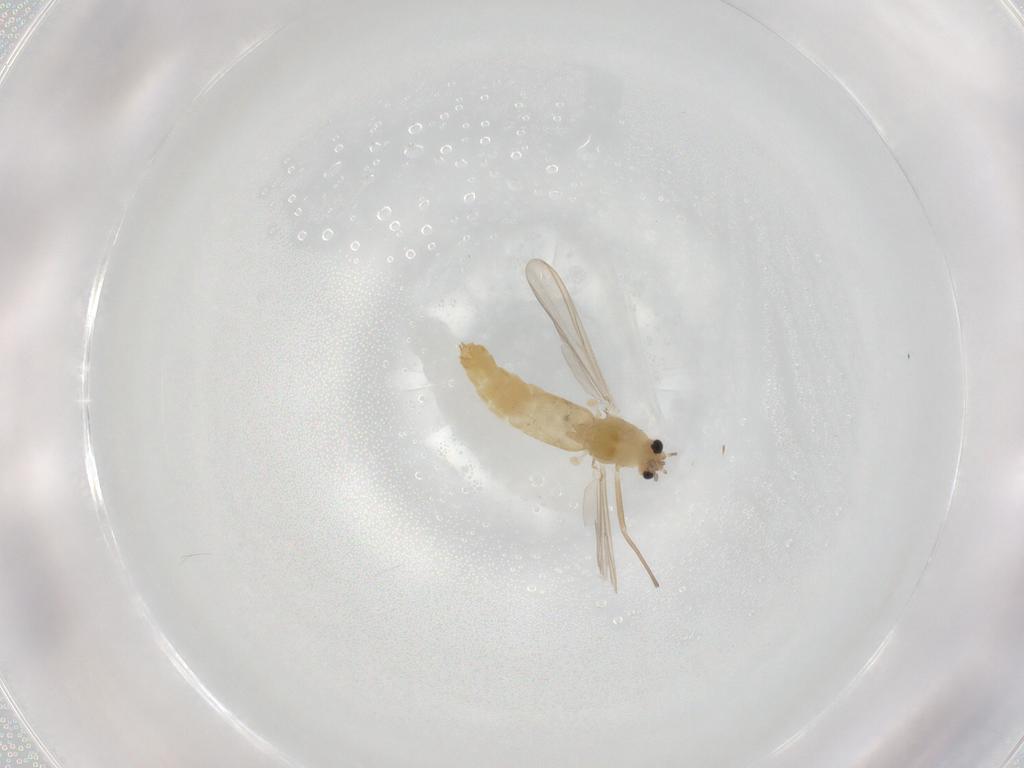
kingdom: Animalia
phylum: Arthropoda
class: Insecta
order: Diptera
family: Chironomidae
